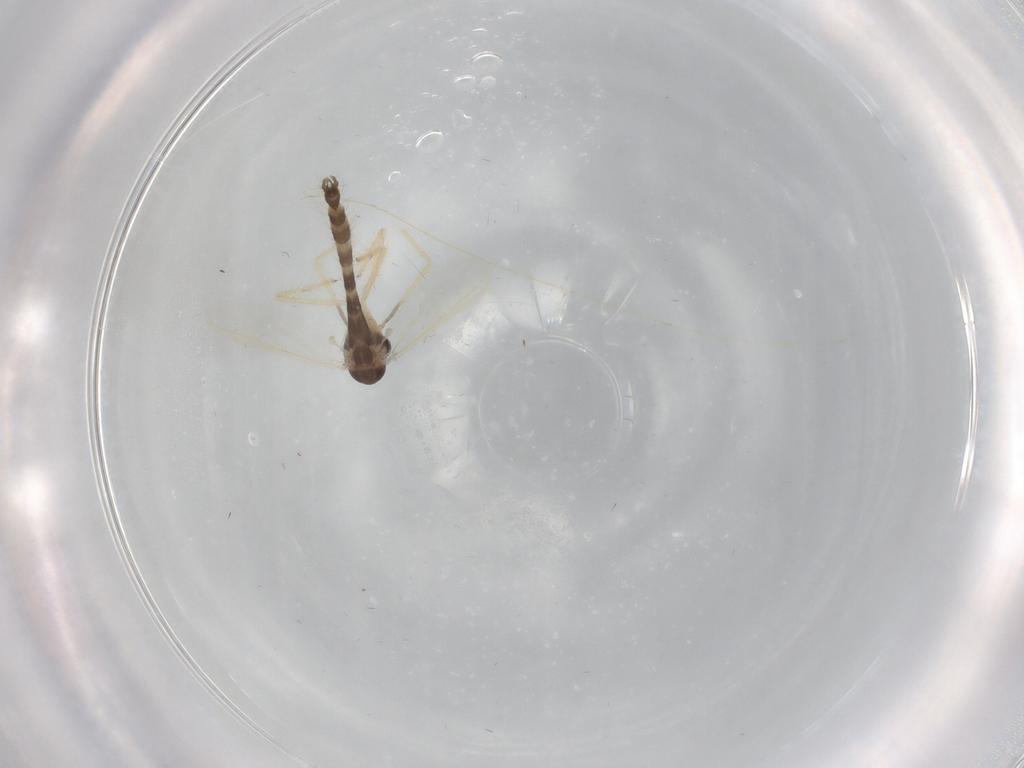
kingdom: Animalia
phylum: Arthropoda
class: Insecta
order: Diptera
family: Chironomidae
